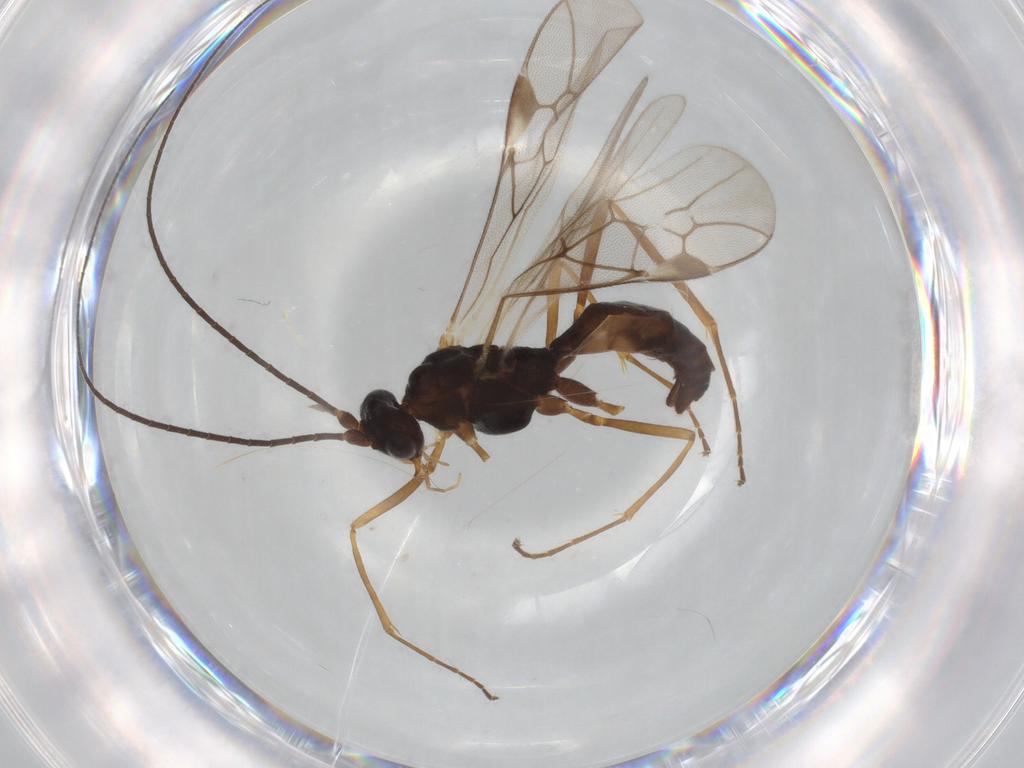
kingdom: Animalia
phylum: Arthropoda
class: Insecta
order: Hymenoptera
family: Braconidae
